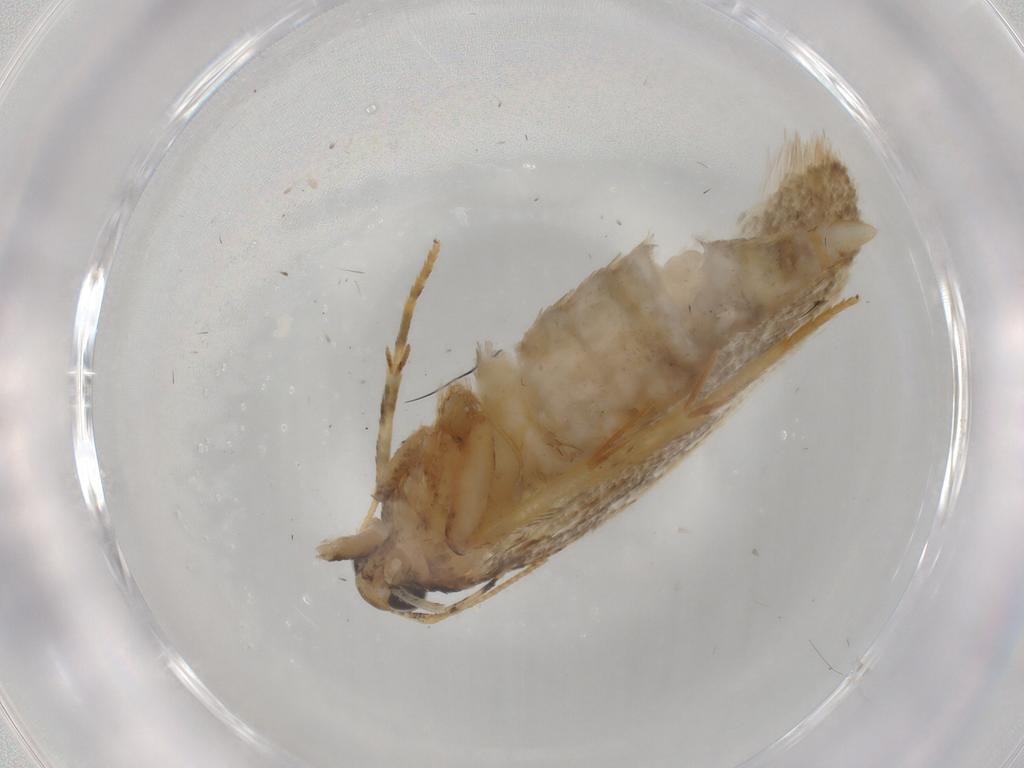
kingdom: Animalia
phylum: Arthropoda
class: Insecta
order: Lepidoptera
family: Gelechiidae
